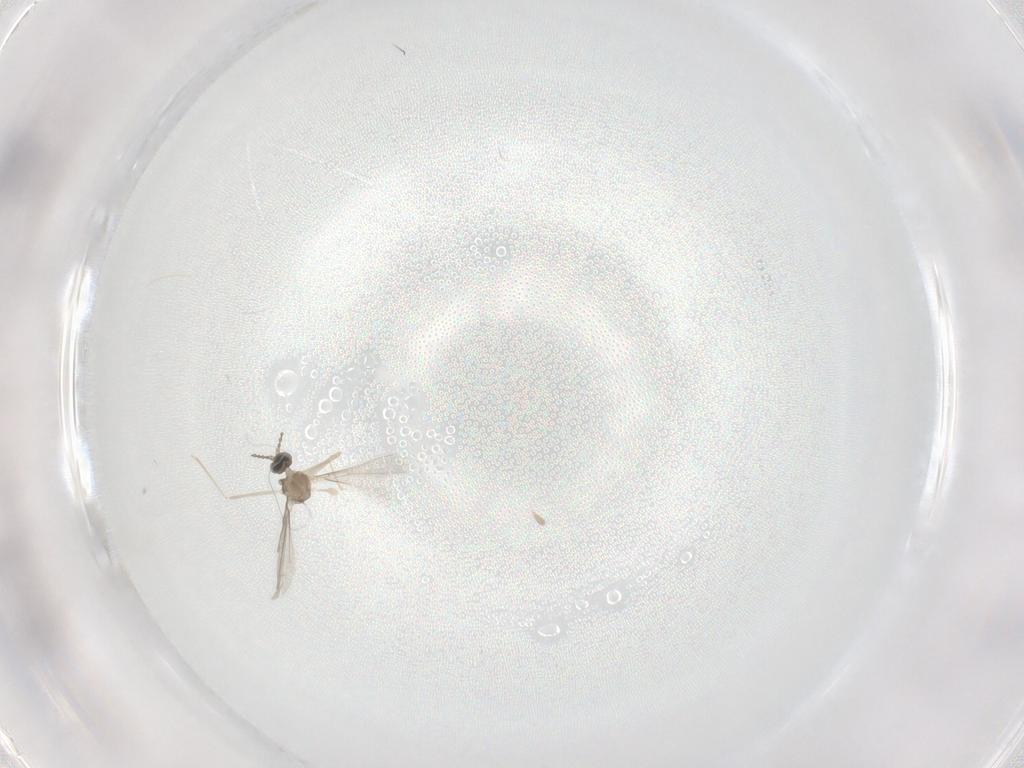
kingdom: Animalia
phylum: Arthropoda
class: Insecta
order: Diptera
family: Cecidomyiidae
